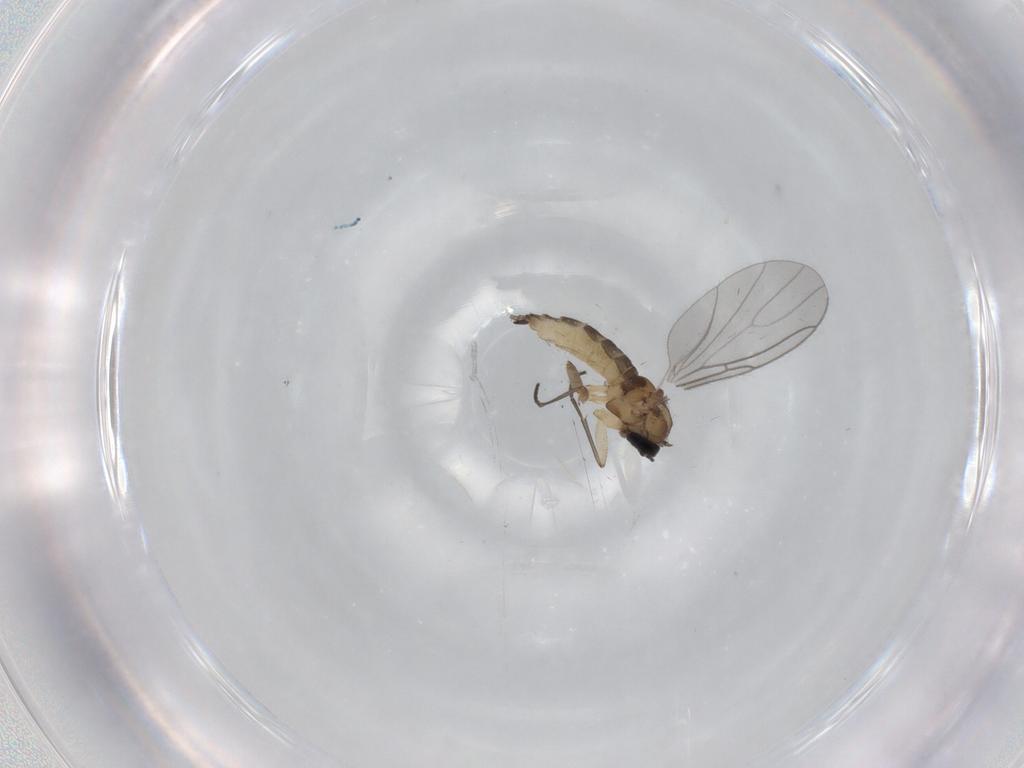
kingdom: Animalia
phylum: Arthropoda
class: Insecta
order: Diptera
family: Sciaridae
